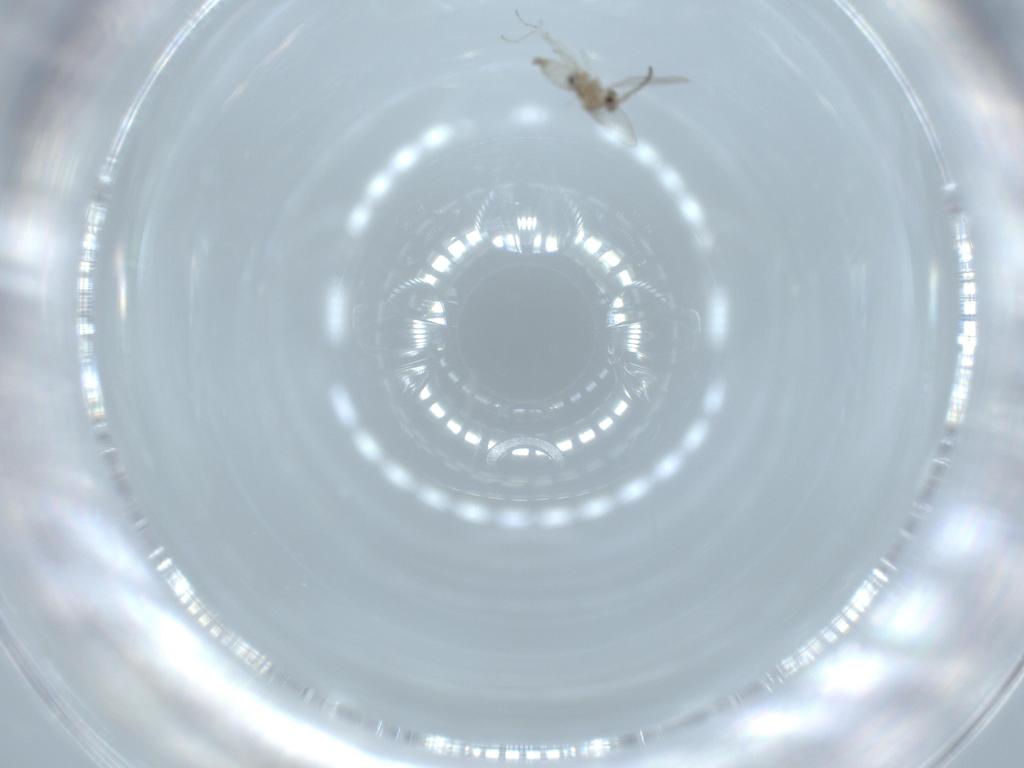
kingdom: Animalia
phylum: Arthropoda
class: Insecta
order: Diptera
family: Cecidomyiidae
